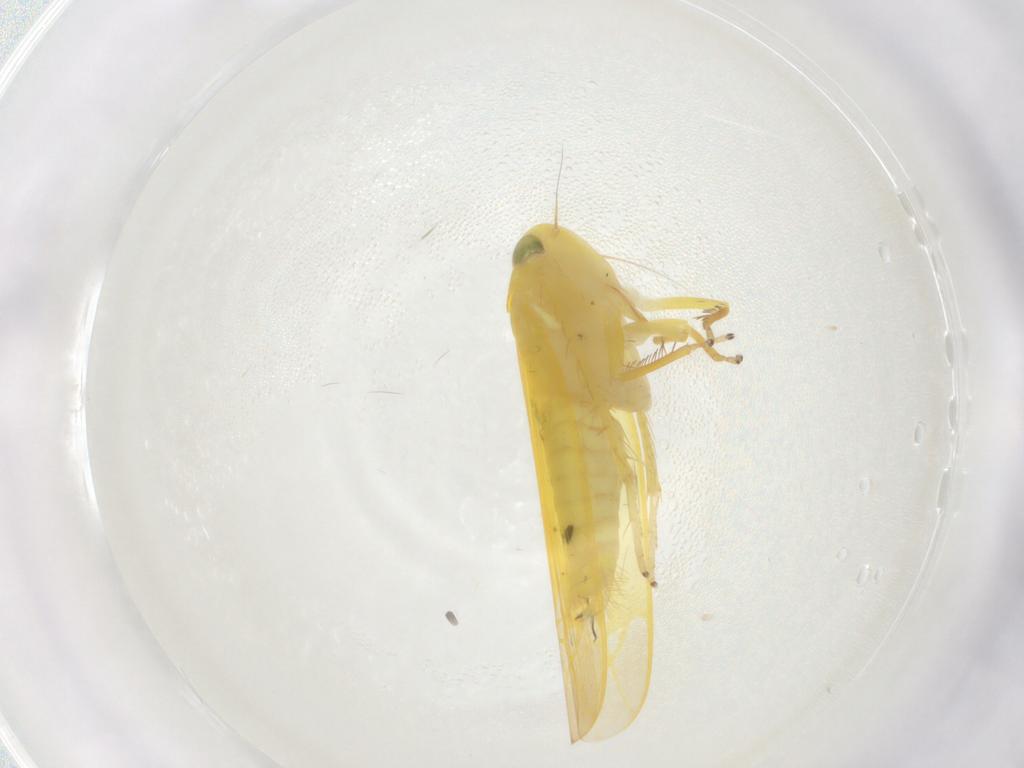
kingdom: Animalia
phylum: Arthropoda
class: Insecta
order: Hemiptera
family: Cicadellidae
